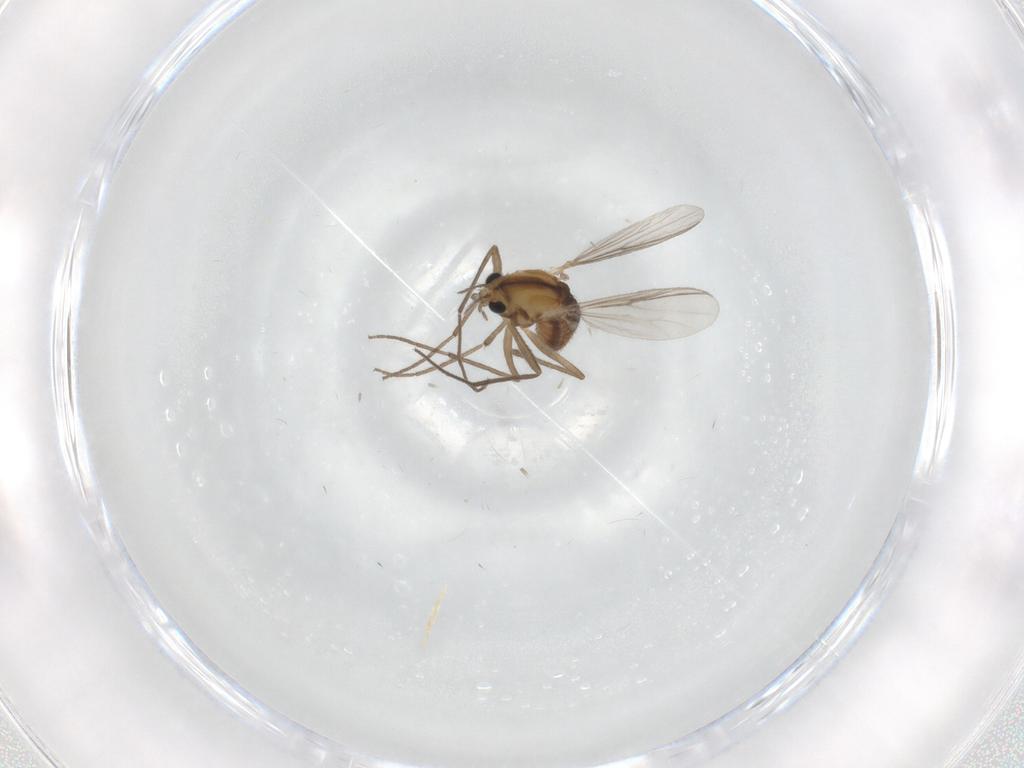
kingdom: Animalia
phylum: Arthropoda
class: Insecta
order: Diptera
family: Chironomidae
